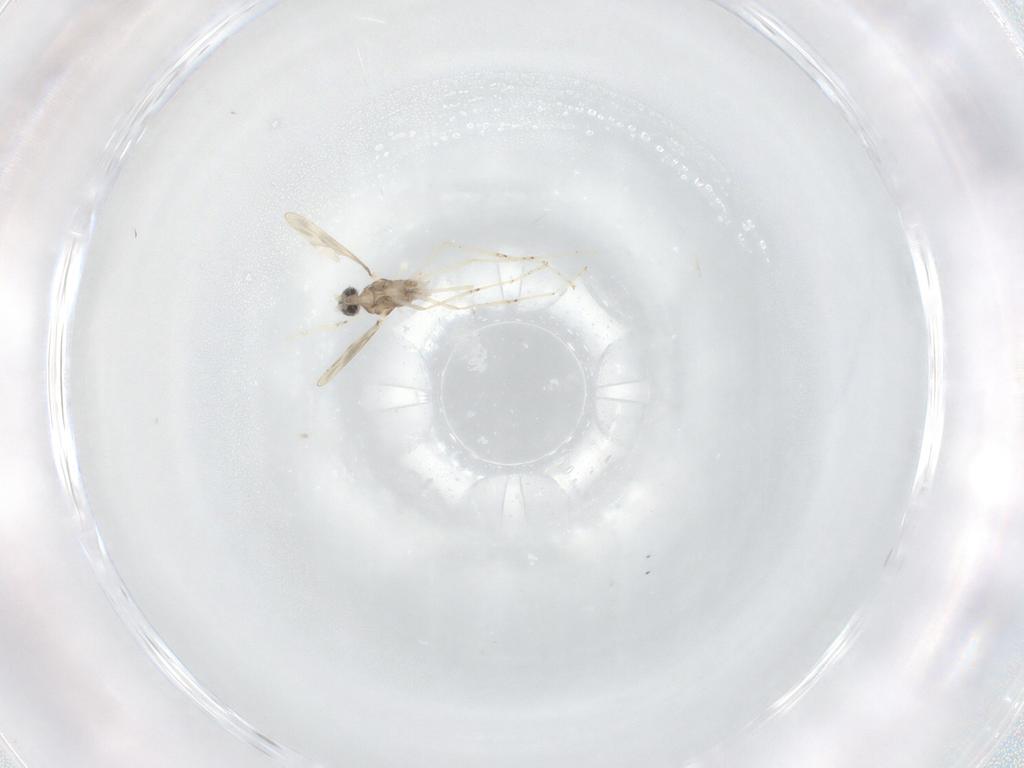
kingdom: Animalia
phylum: Arthropoda
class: Insecta
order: Diptera
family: Cecidomyiidae
